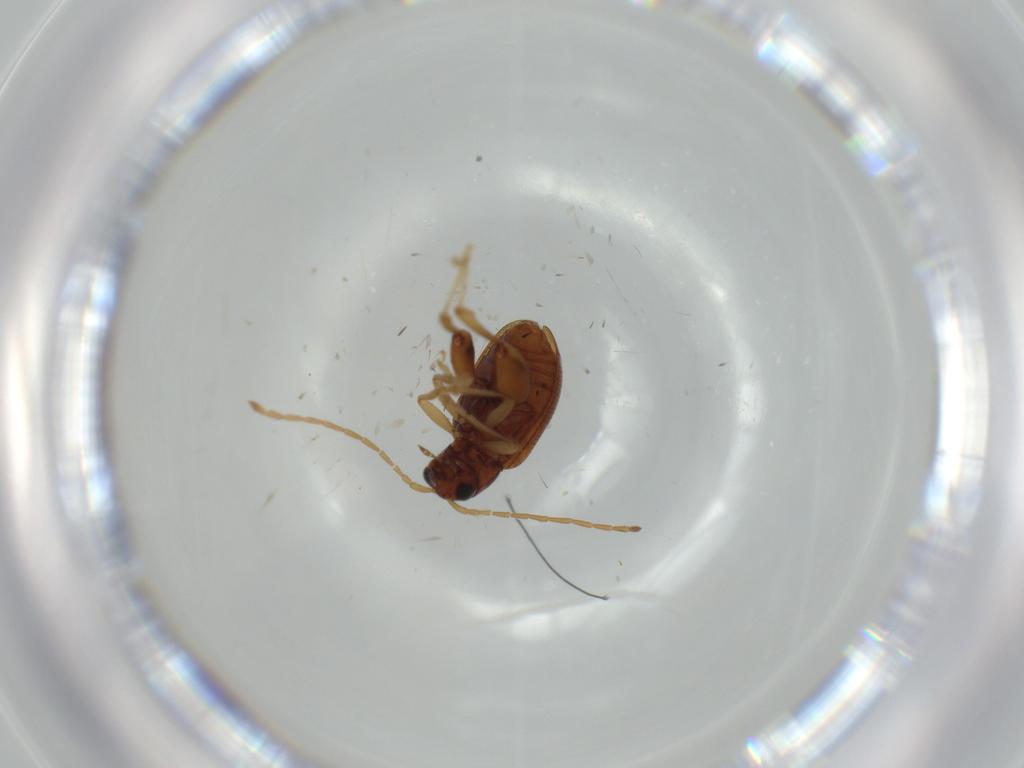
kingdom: Animalia
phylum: Arthropoda
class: Insecta
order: Coleoptera
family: Chrysomelidae
